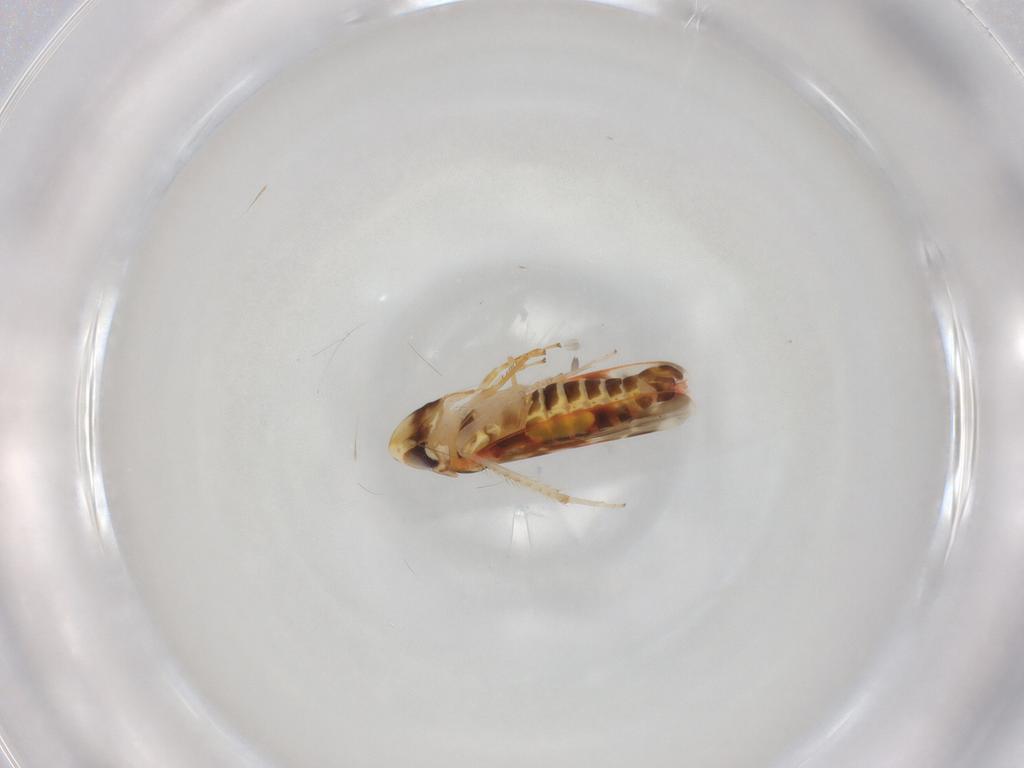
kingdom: Animalia
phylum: Arthropoda
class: Insecta
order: Hemiptera
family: Cicadellidae
